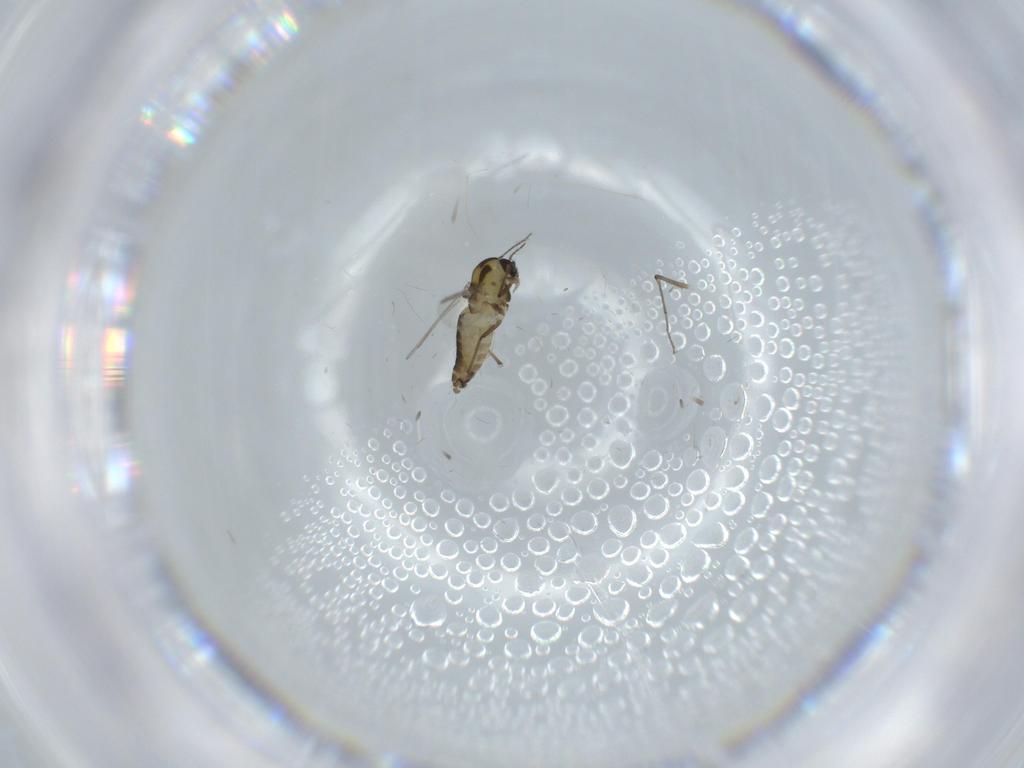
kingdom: Animalia
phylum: Arthropoda
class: Insecta
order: Diptera
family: Chironomidae
